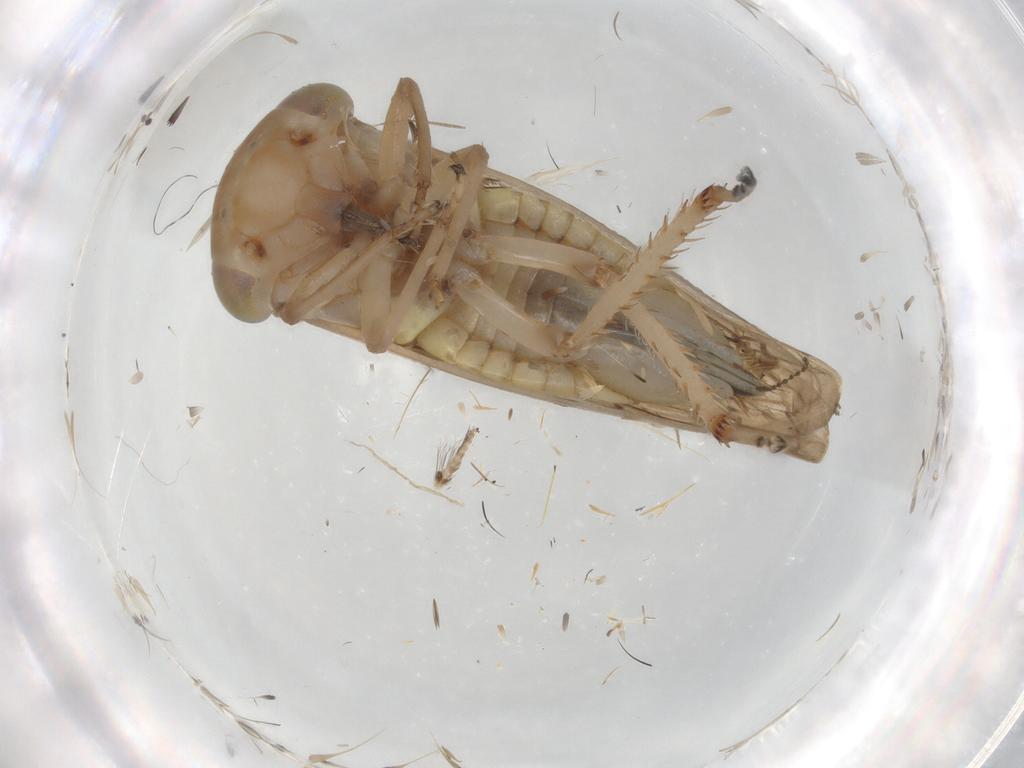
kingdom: Animalia
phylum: Arthropoda
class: Insecta
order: Hemiptera
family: Cicadellidae
